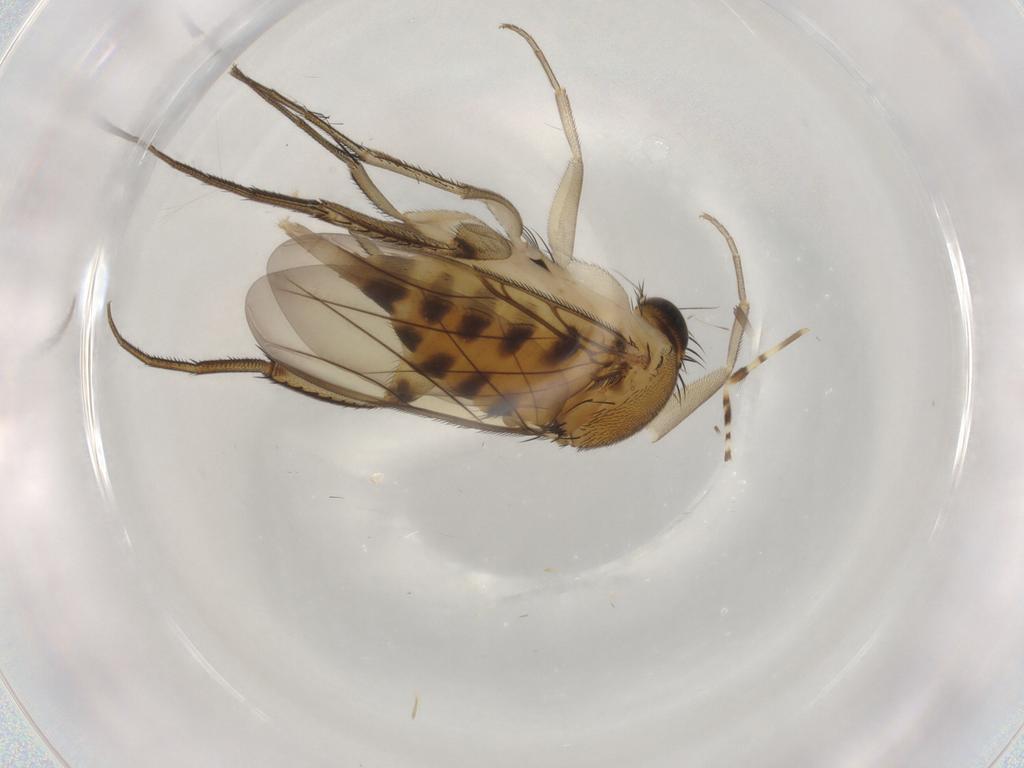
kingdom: Animalia
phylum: Arthropoda
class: Insecta
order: Diptera
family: Phoridae
